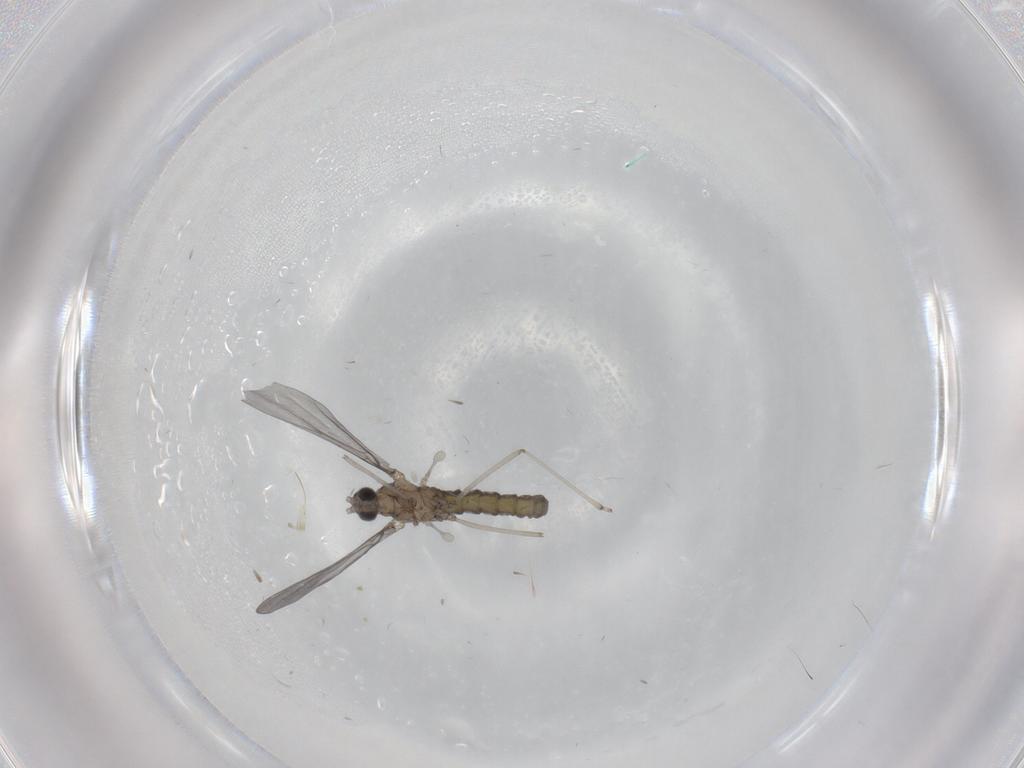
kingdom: Animalia
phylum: Arthropoda
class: Insecta
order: Diptera
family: Cecidomyiidae
